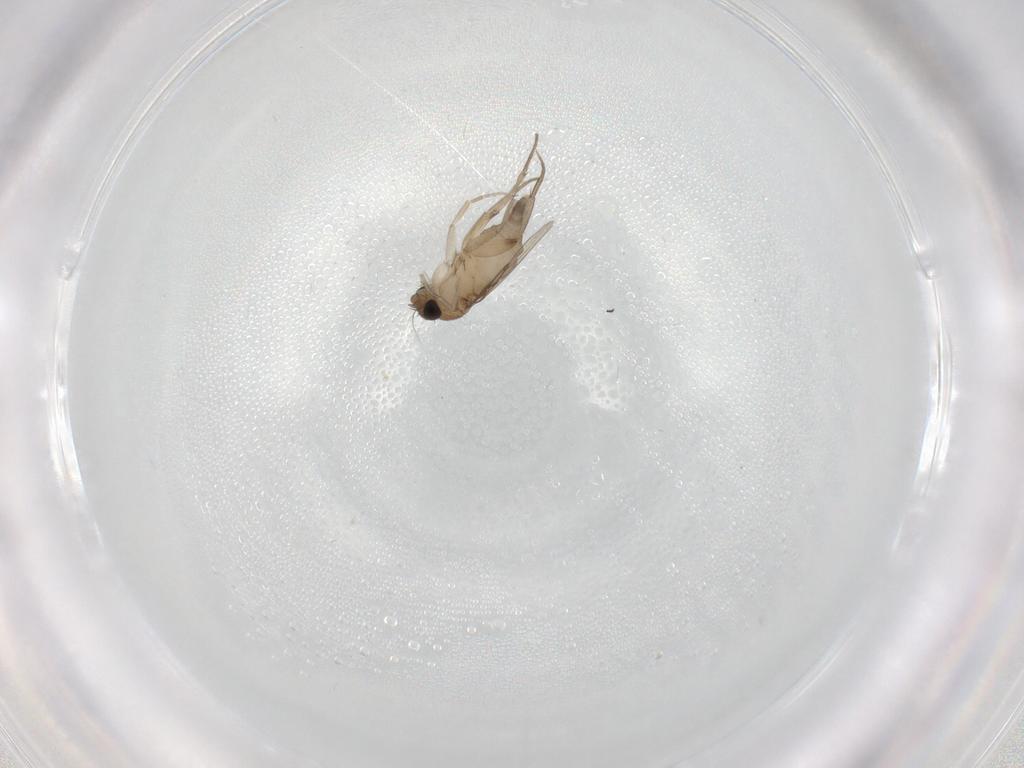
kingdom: Animalia
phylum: Arthropoda
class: Insecta
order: Diptera
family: Phoridae
